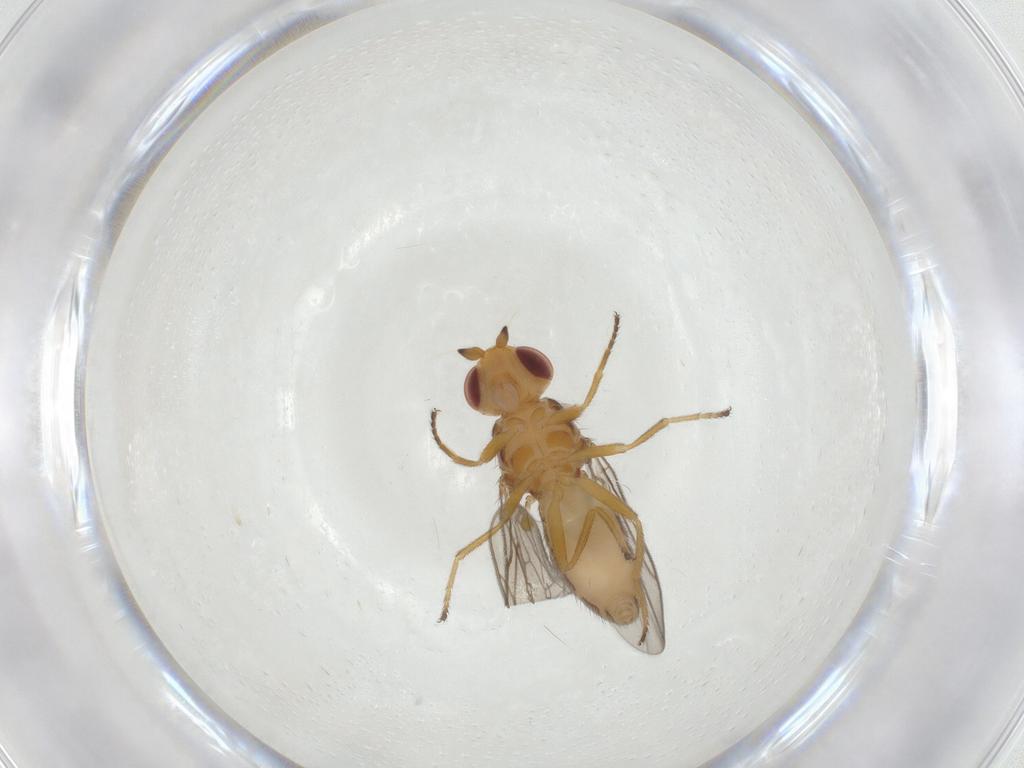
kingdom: Animalia
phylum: Arthropoda
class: Insecta
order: Diptera
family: Chloropidae
